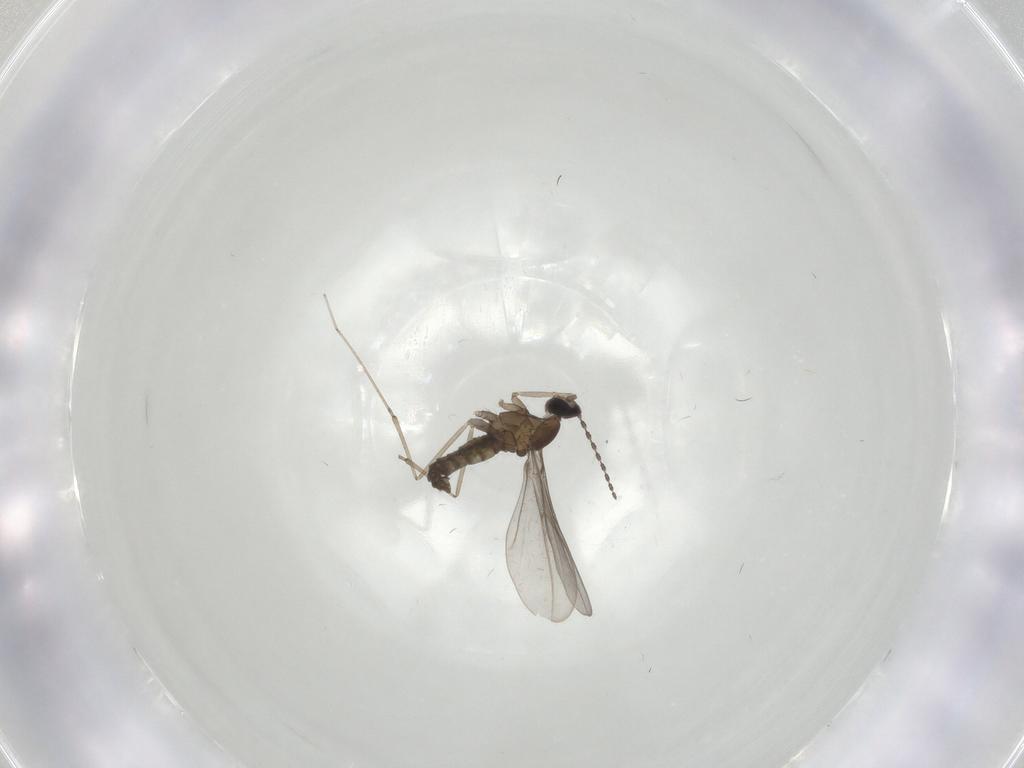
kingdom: Animalia
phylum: Arthropoda
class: Insecta
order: Diptera
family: Cecidomyiidae
